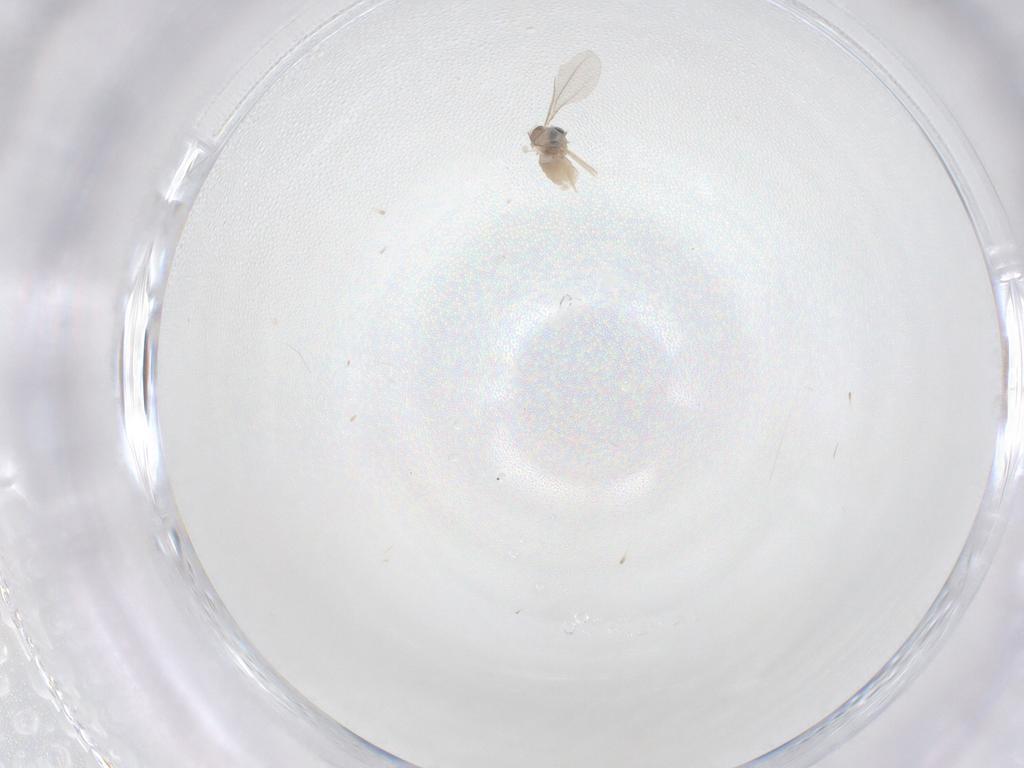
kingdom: Animalia
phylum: Arthropoda
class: Insecta
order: Diptera
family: Cecidomyiidae
